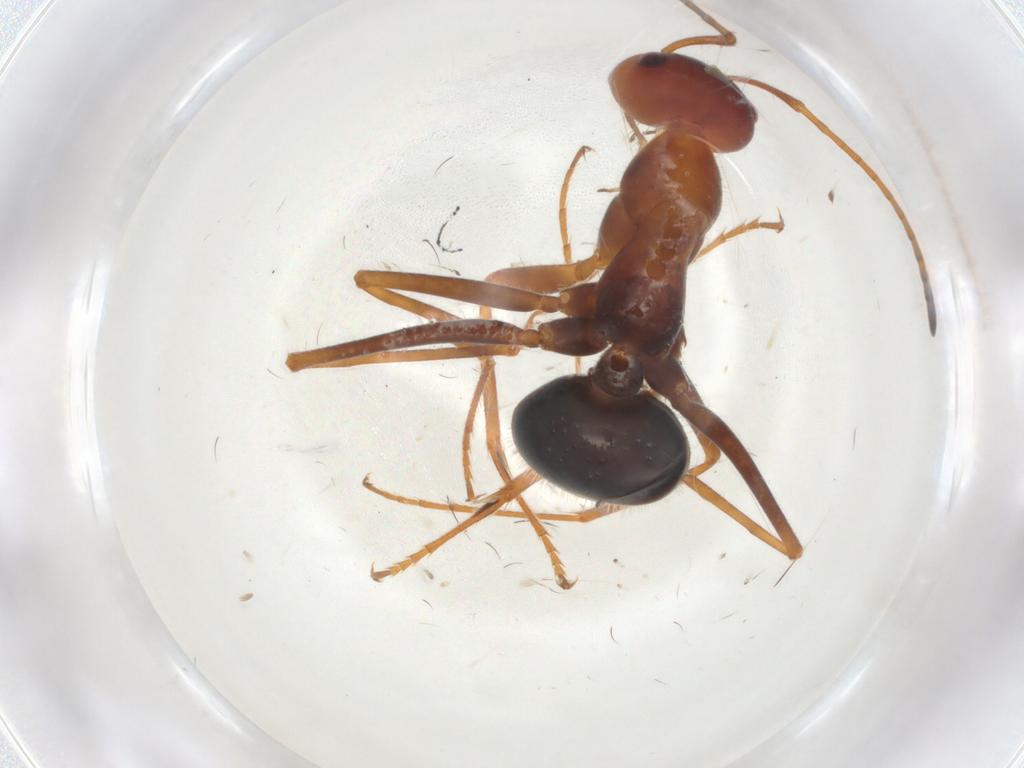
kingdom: Animalia
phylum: Arthropoda
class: Insecta
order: Hymenoptera
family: Formicidae
